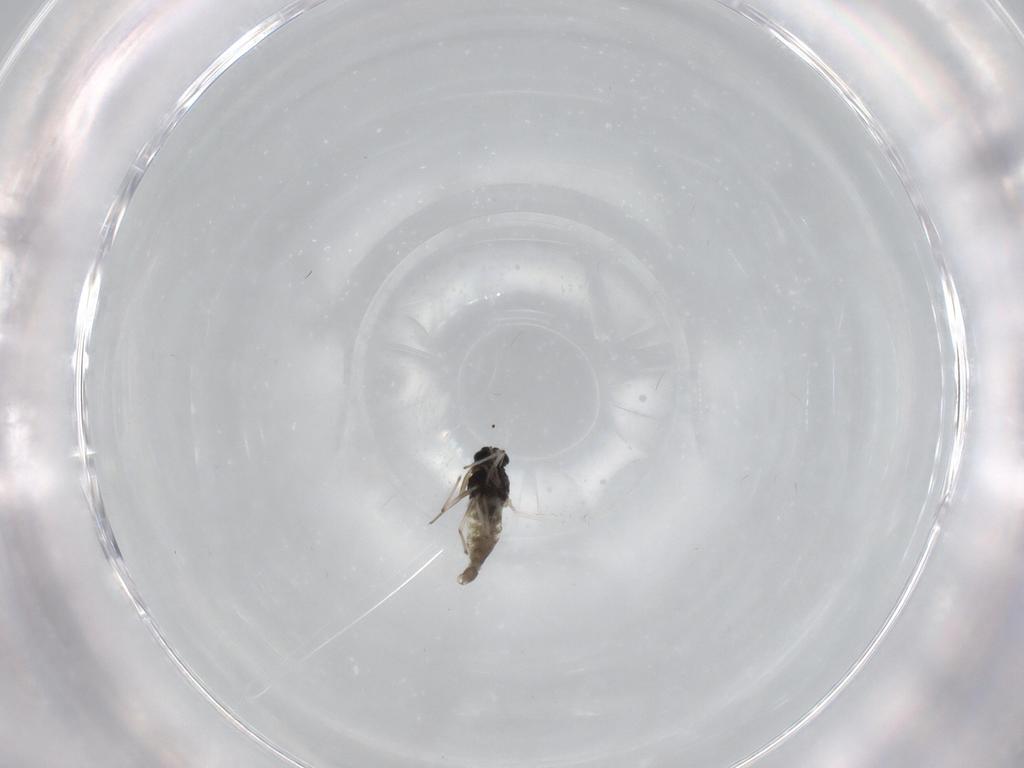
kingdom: Animalia
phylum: Arthropoda
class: Insecta
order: Diptera
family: Chironomidae
